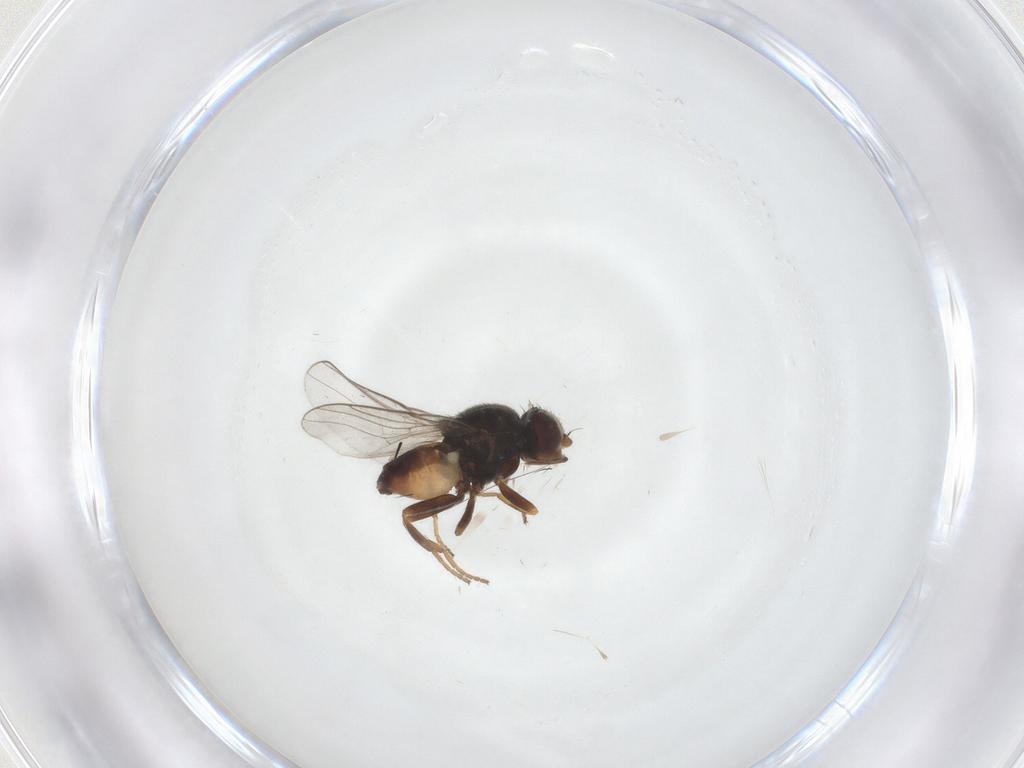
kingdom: Animalia
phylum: Arthropoda
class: Insecta
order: Diptera
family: Chloropidae
